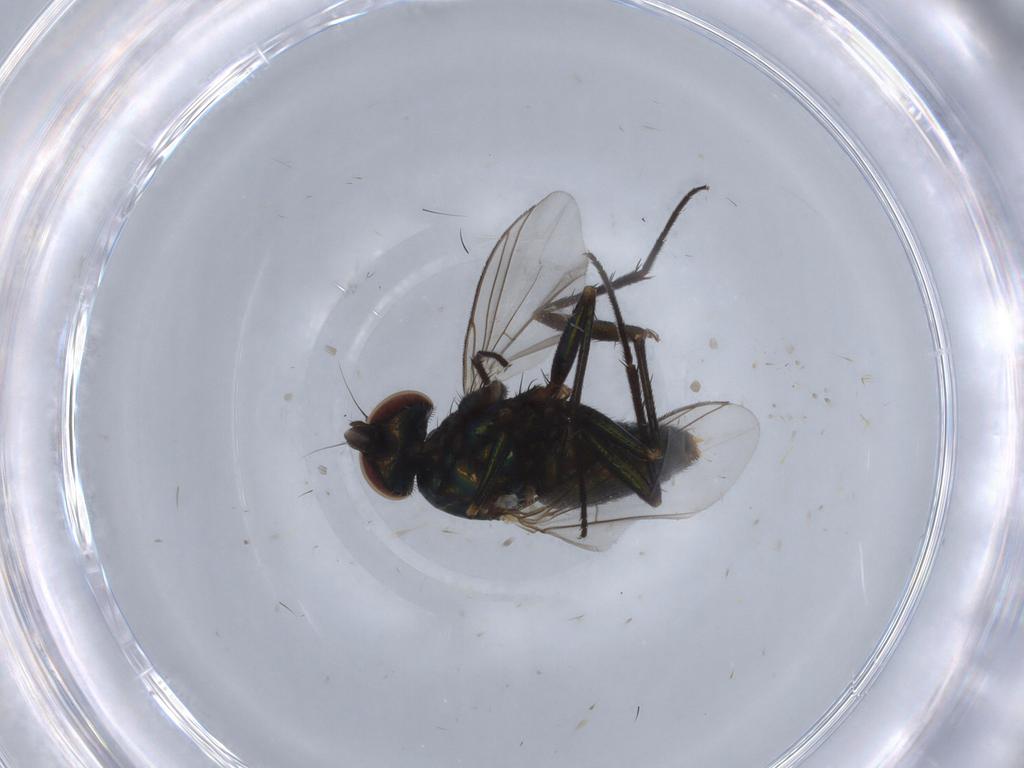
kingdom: Animalia
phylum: Arthropoda
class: Insecta
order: Diptera
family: Dolichopodidae
